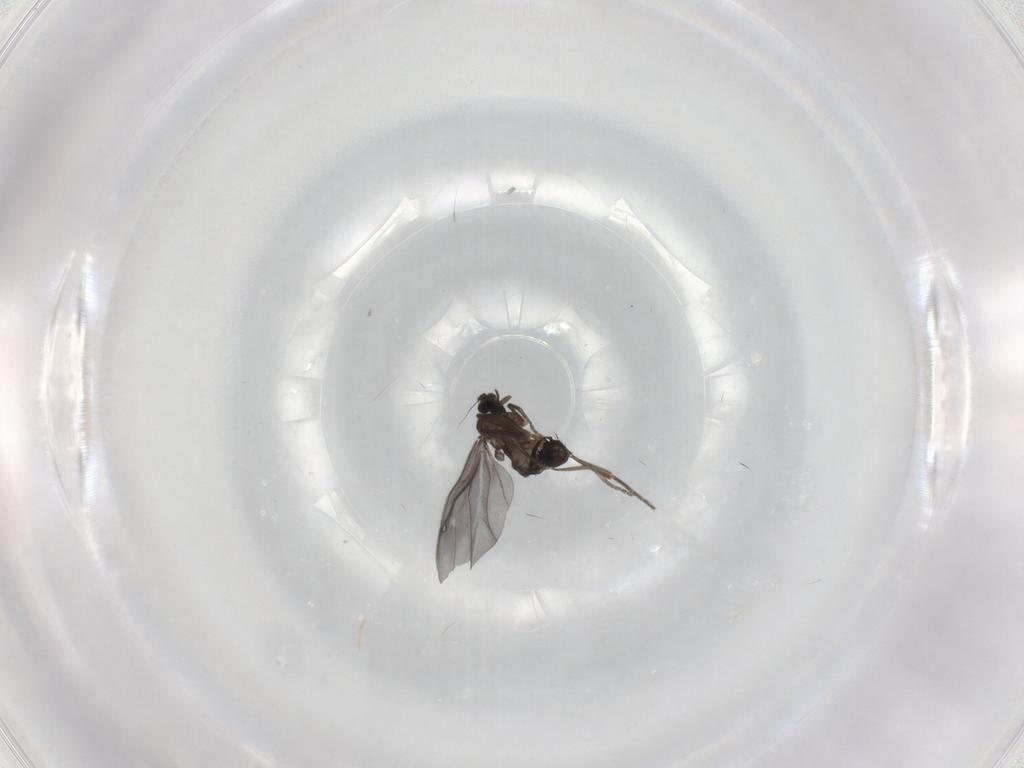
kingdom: Animalia
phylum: Arthropoda
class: Insecta
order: Diptera
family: Phoridae
